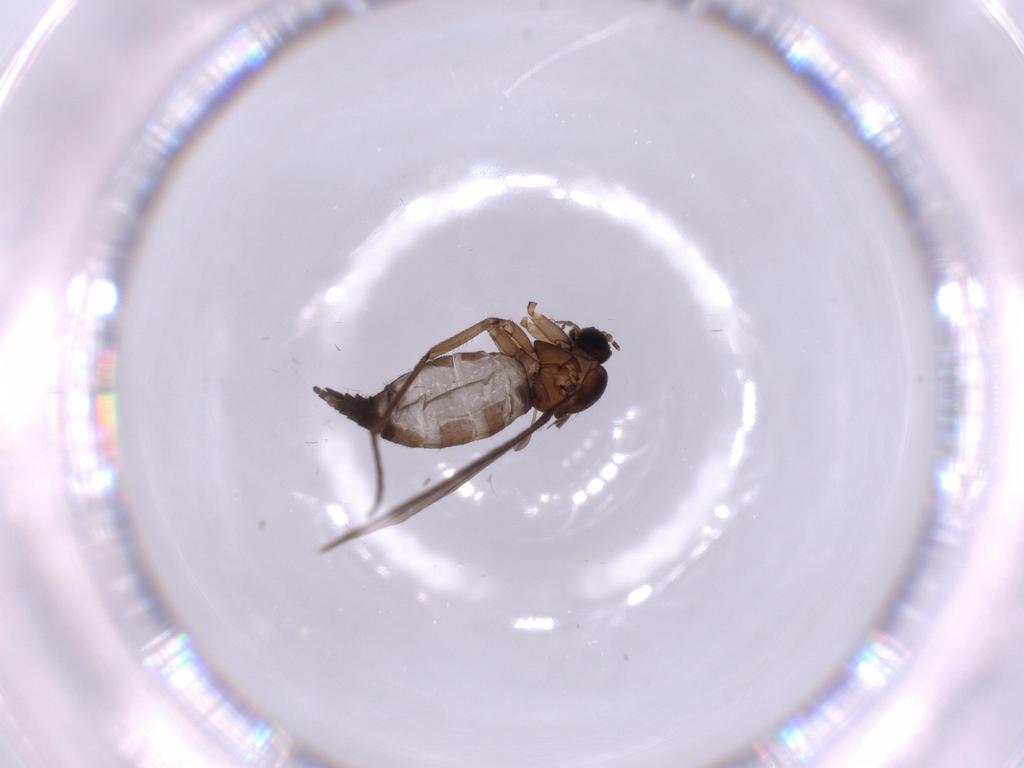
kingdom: Animalia
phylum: Arthropoda
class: Insecta
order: Diptera
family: Sciaridae
